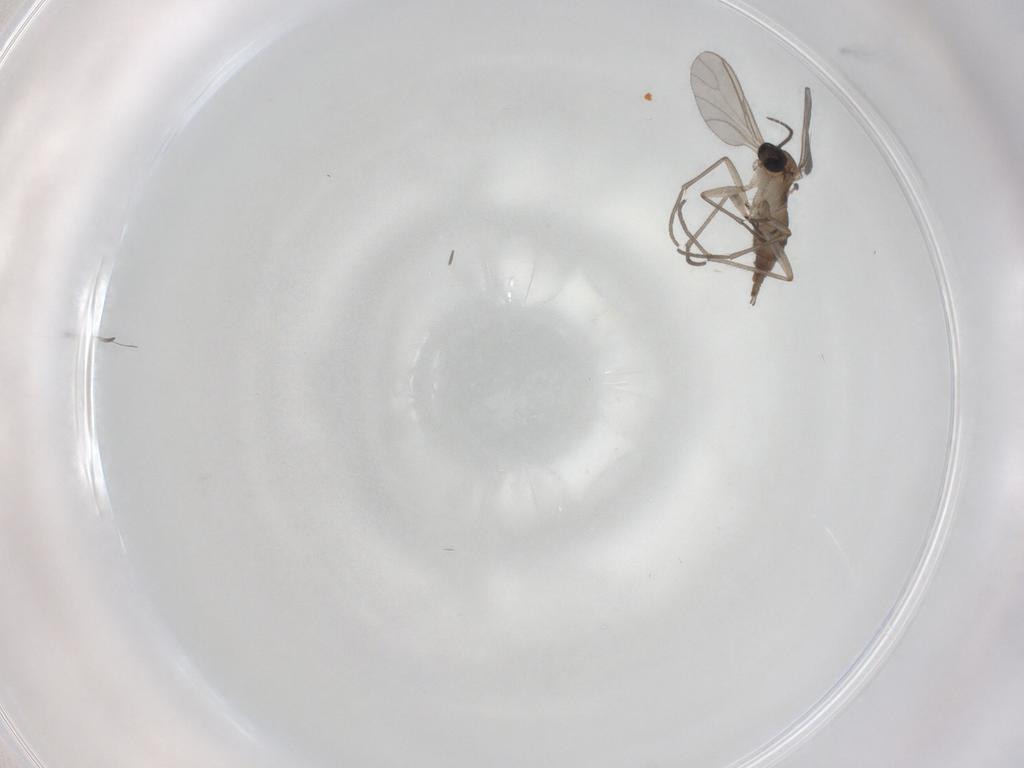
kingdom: Animalia
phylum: Arthropoda
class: Insecta
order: Diptera
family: Sciaridae
